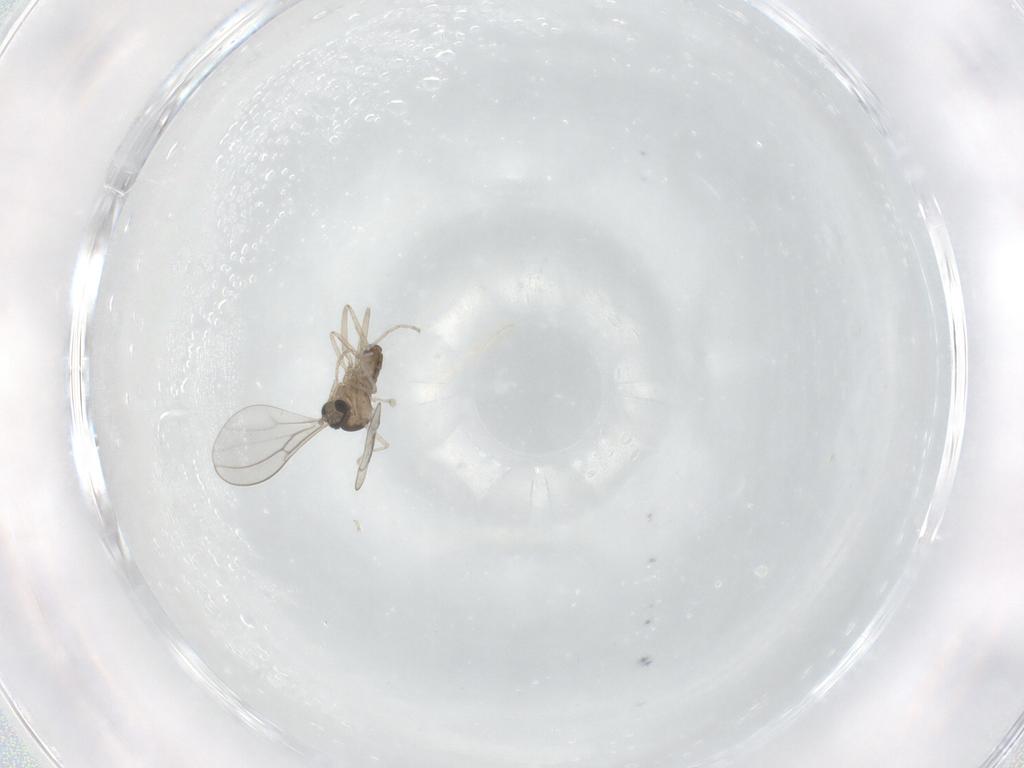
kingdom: Animalia
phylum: Arthropoda
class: Insecta
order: Diptera
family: Cecidomyiidae
